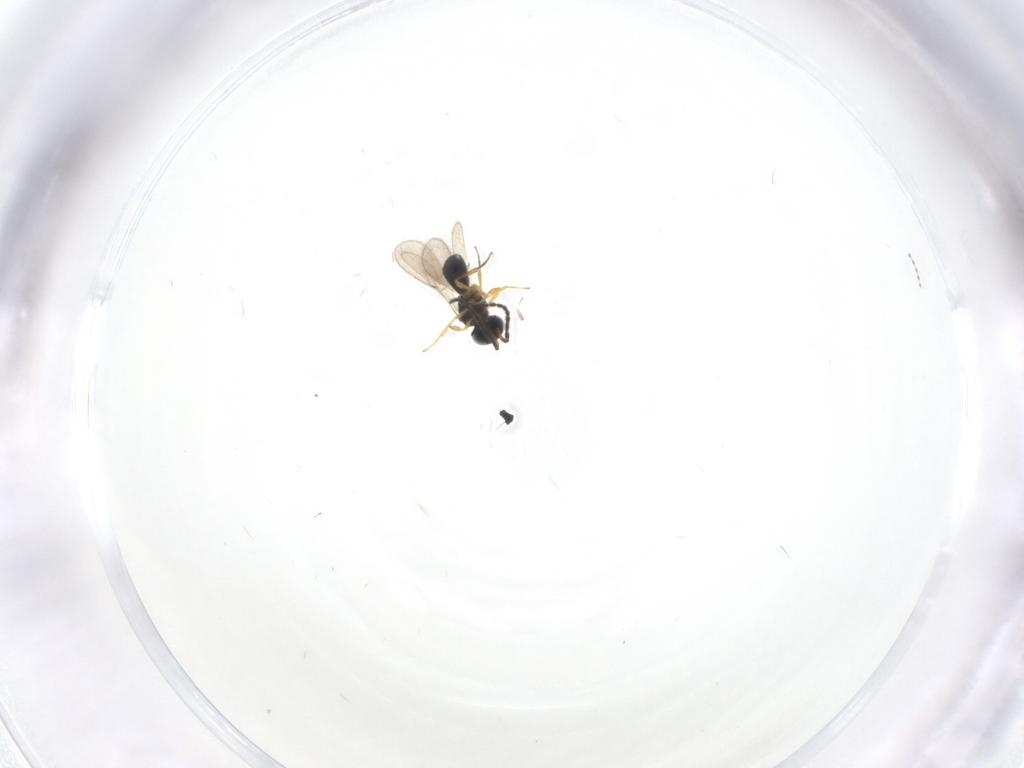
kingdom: Animalia
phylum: Arthropoda
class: Insecta
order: Hymenoptera
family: Scelionidae
